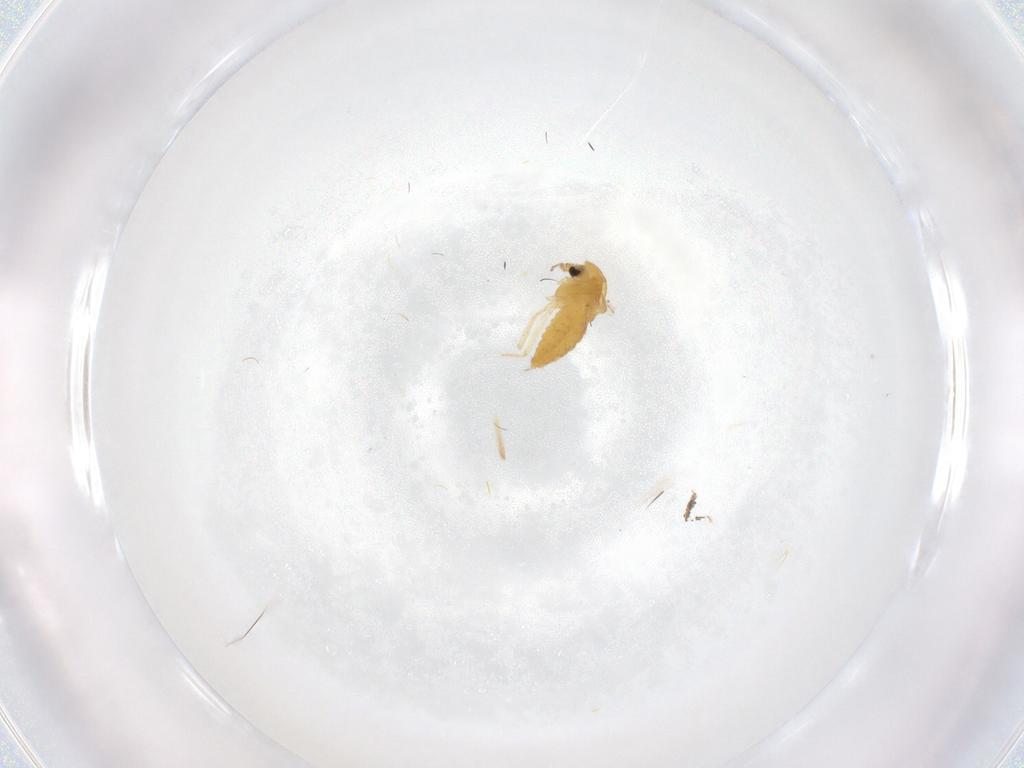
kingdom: Animalia
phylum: Arthropoda
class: Insecta
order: Diptera
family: Chironomidae
